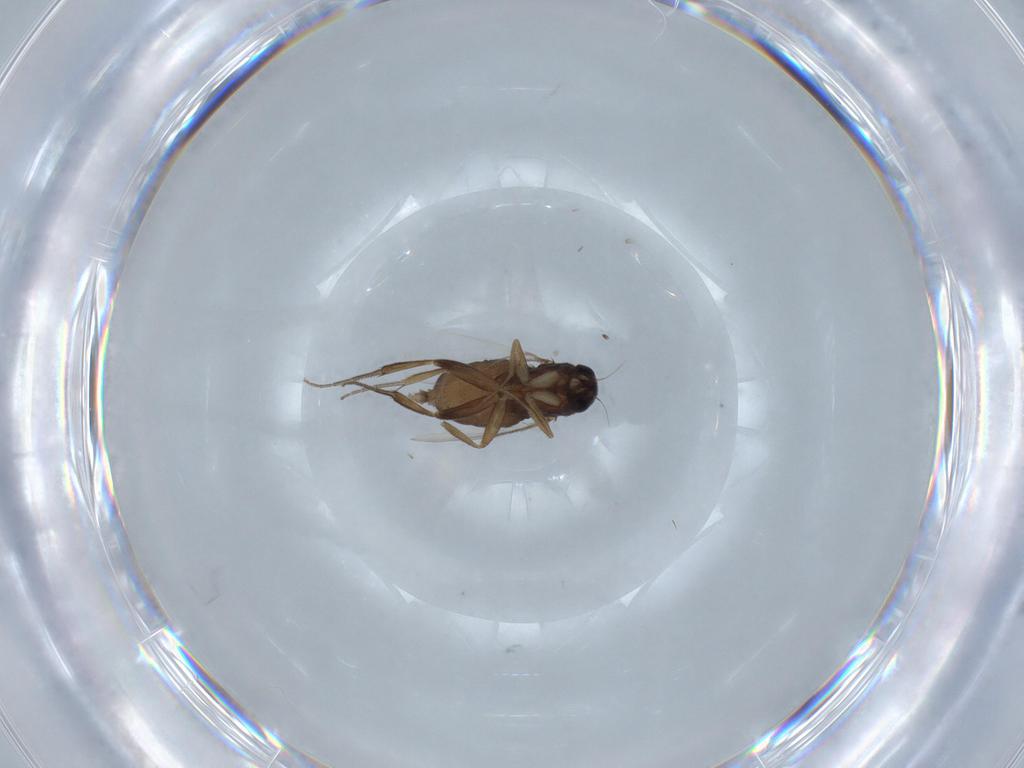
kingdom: Animalia
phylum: Arthropoda
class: Insecta
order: Diptera
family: Phoridae
